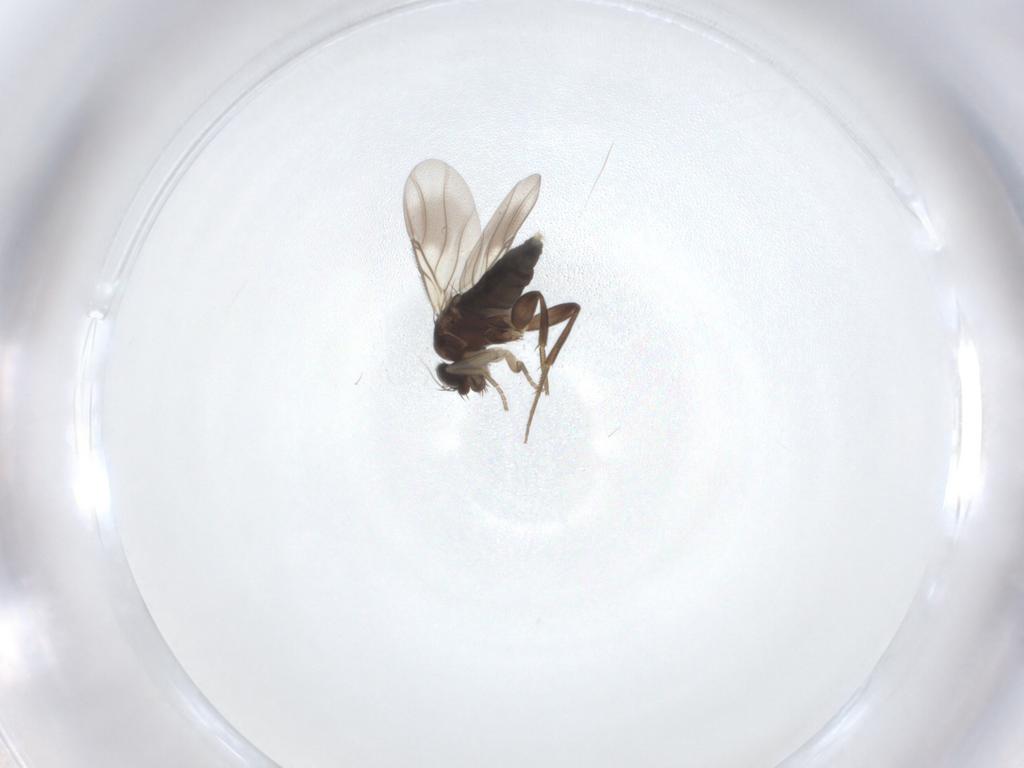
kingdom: Animalia
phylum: Arthropoda
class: Insecta
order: Diptera
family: Phoridae
